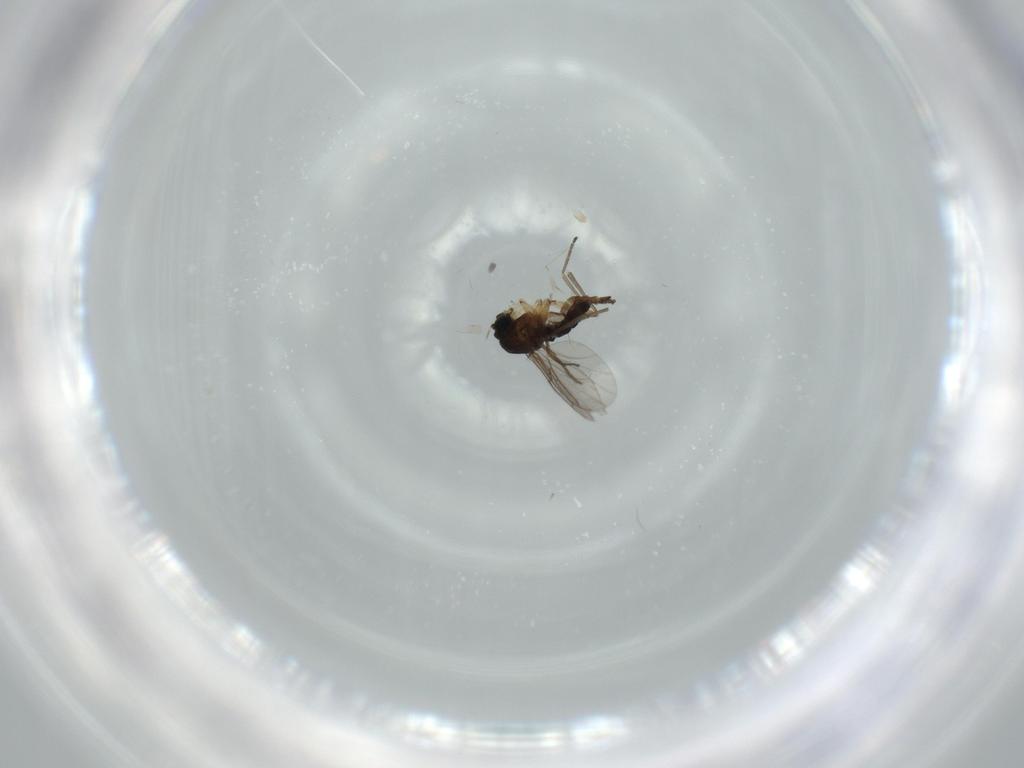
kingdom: Animalia
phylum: Arthropoda
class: Insecta
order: Diptera
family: Sciaridae
